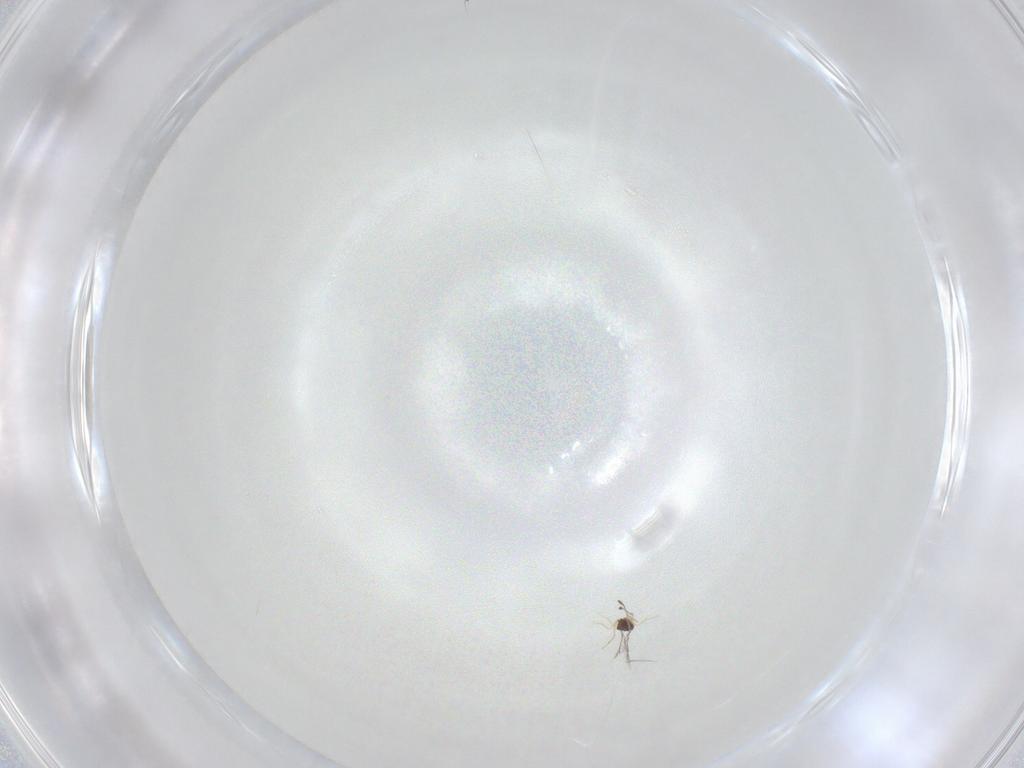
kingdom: Animalia
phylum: Arthropoda
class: Insecta
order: Hymenoptera
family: Trichogrammatidae
